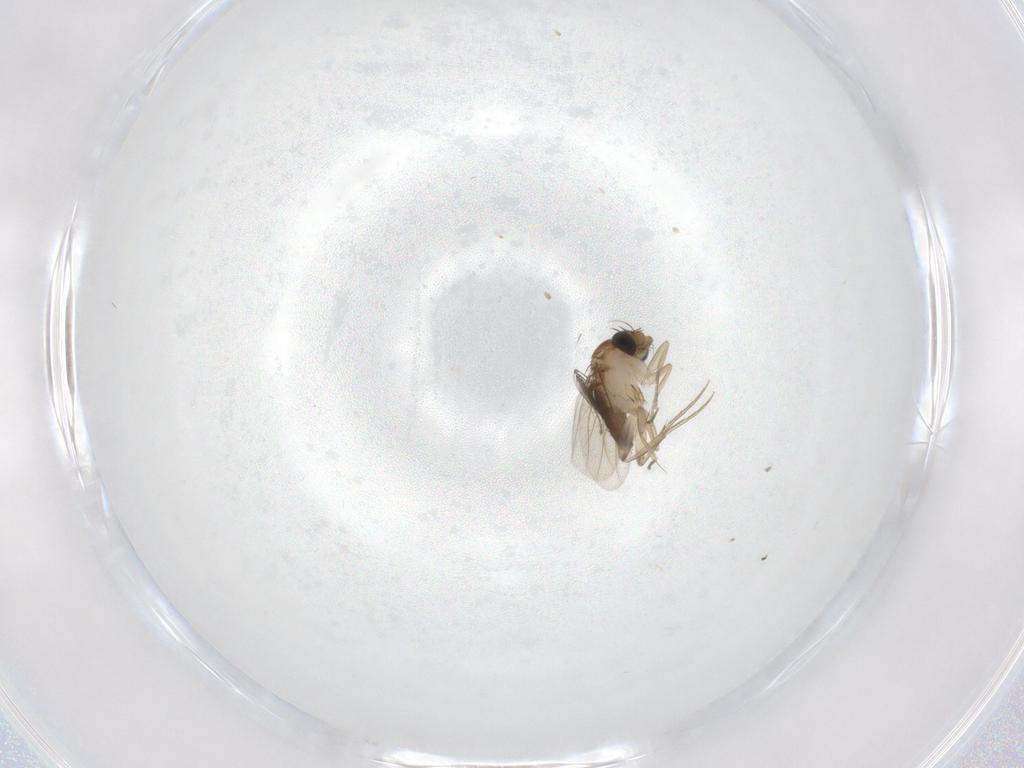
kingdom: Animalia
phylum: Arthropoda
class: Insecta
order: Diptera
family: Phoridae
